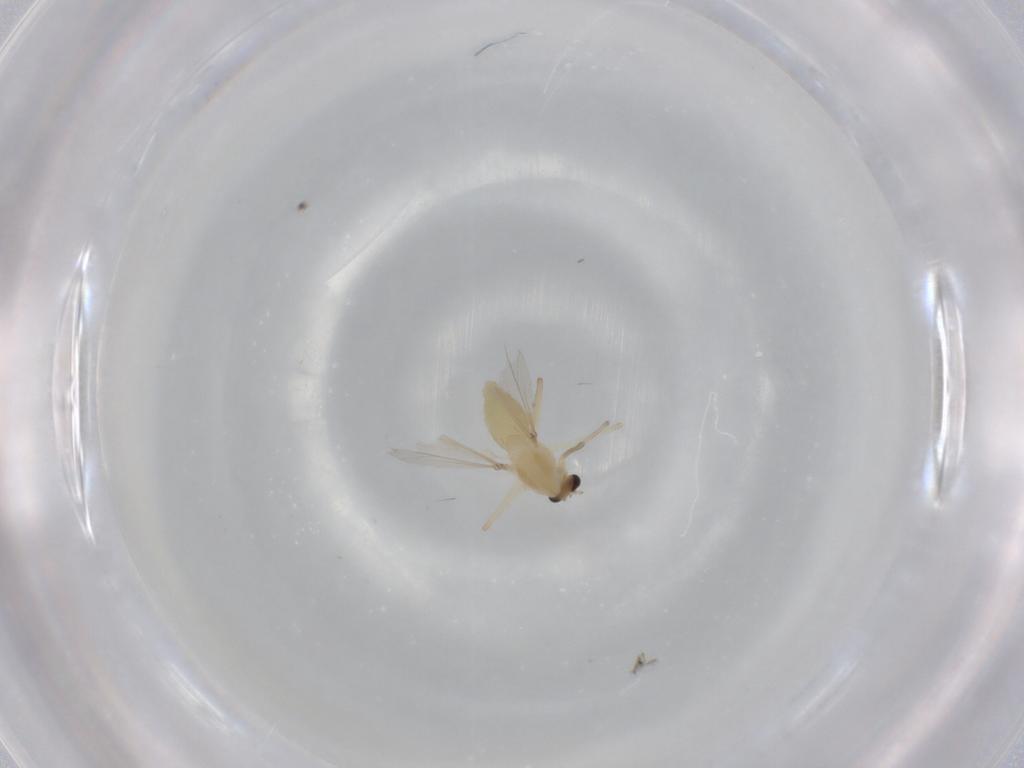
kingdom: Animalia
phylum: Arthropoda
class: Insecta
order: Diptera
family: Chironomidae
